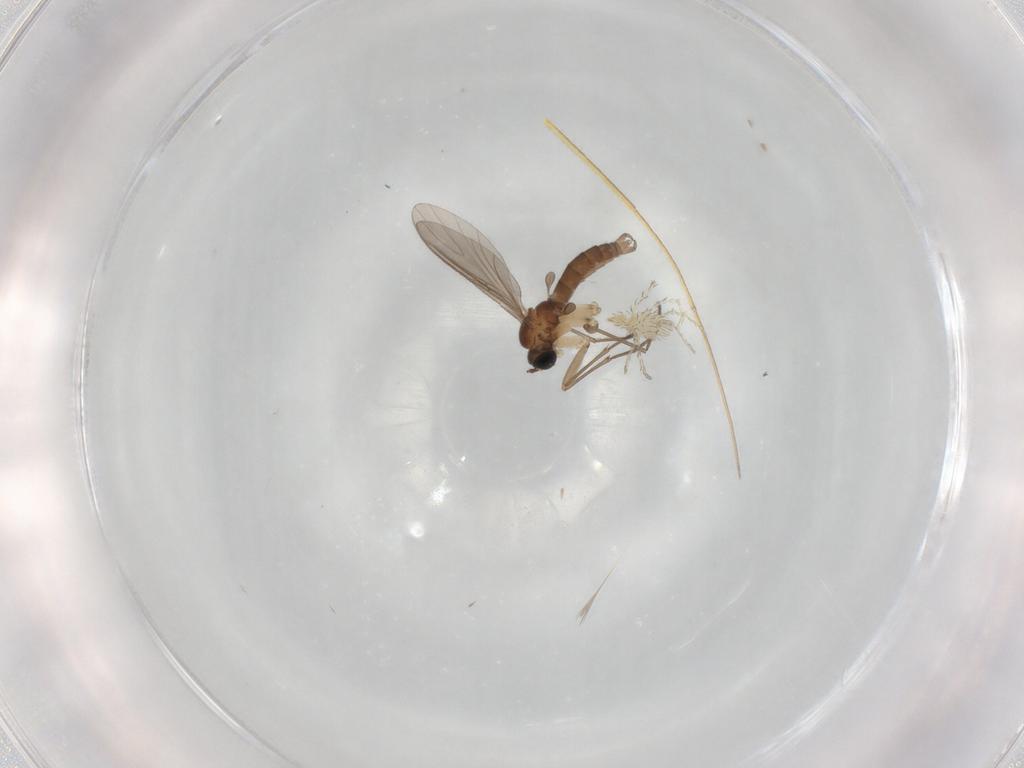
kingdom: Animalia
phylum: Arthropoda
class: Insecta
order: Diptera
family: Sciaridae
